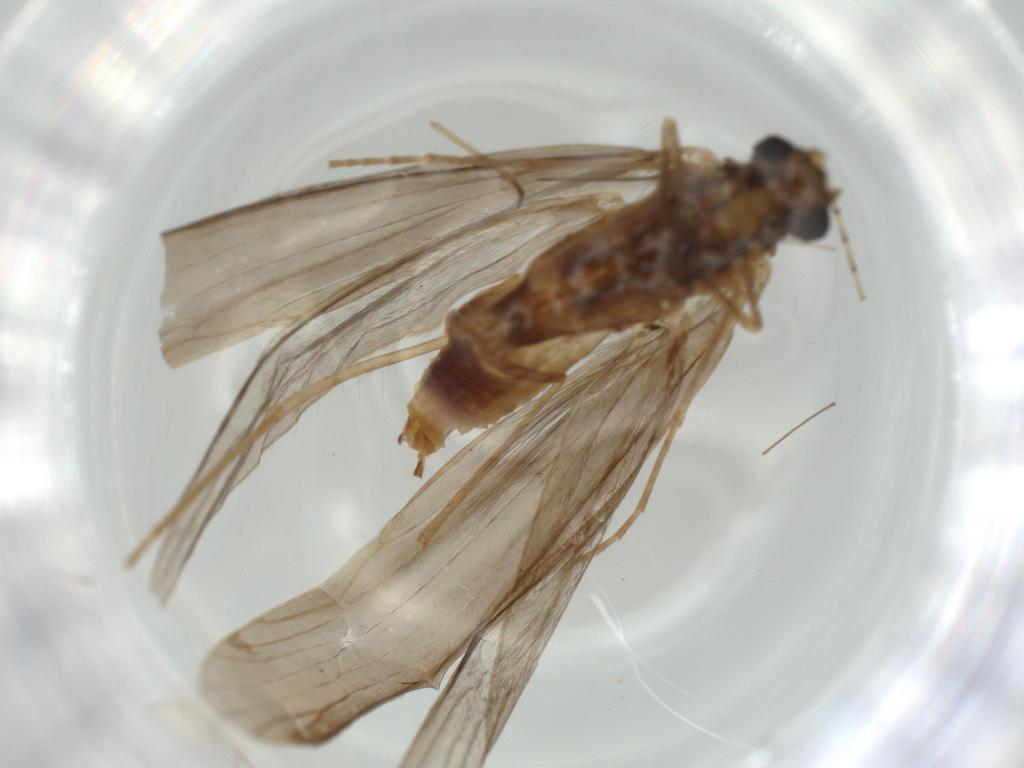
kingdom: Animalia
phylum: Arthropoda
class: Insecta
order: Trichoptera
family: Leptoceridae
